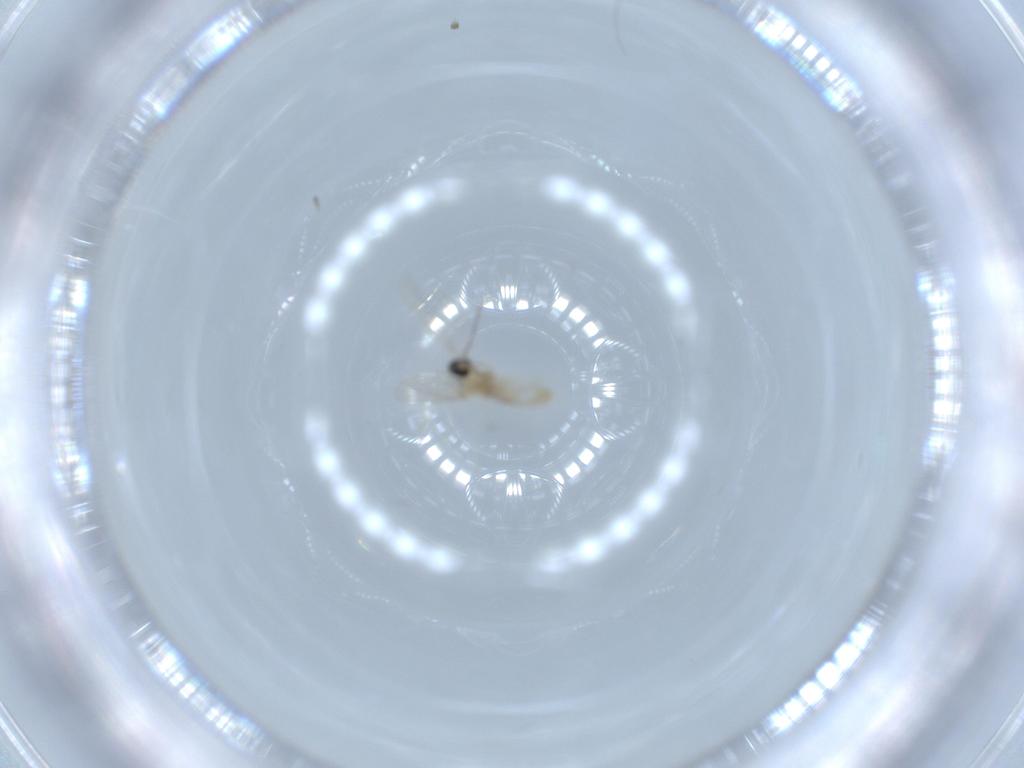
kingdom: Animalia
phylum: Arthropoda
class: Insecta
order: Diptera
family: Cecidomyiidae
